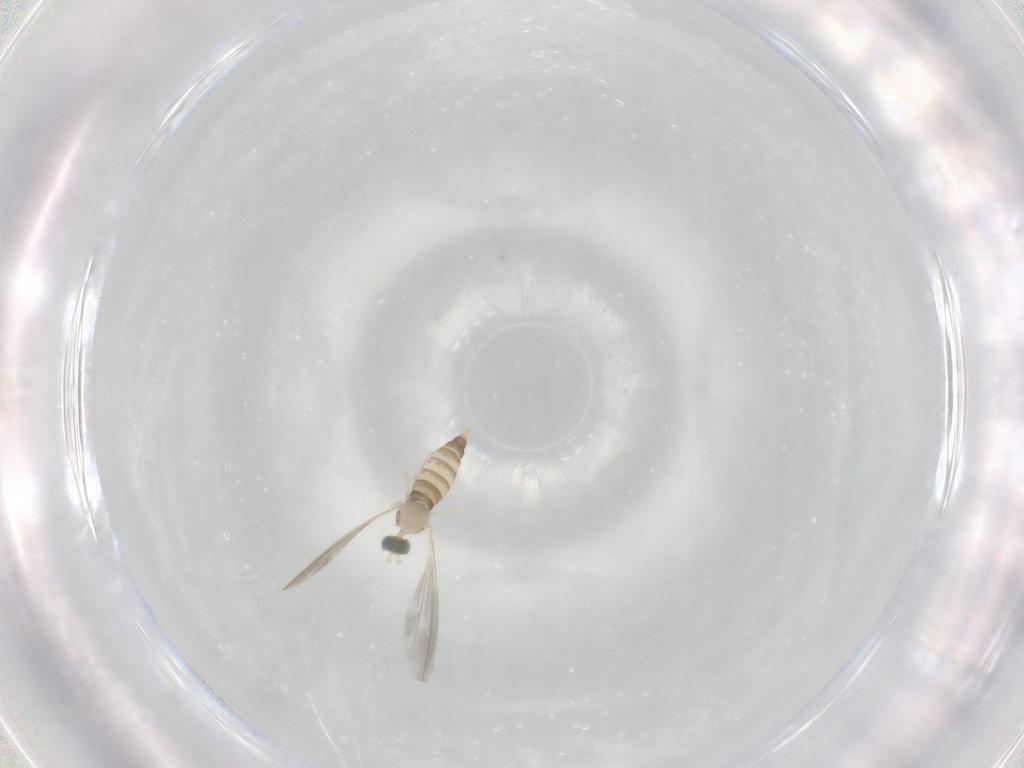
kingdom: Animalia
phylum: Arthropoda
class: Insecta
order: Diptera
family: Cecidomyiidae
